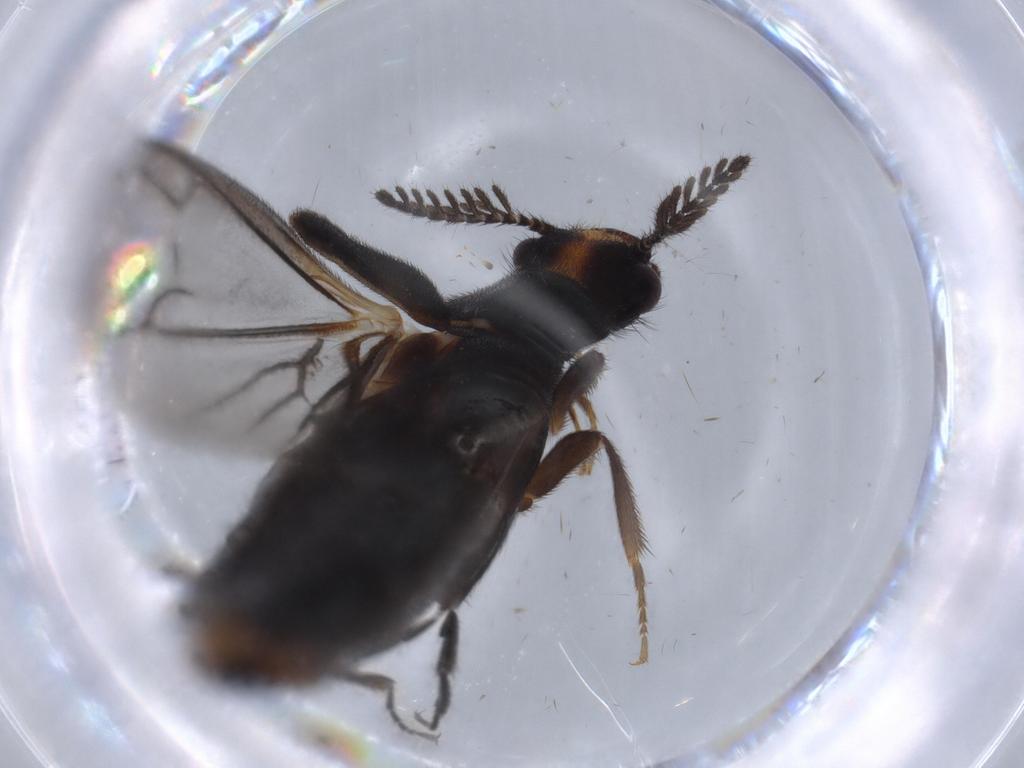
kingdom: Animalia
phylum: Arthropoda
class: Insecta
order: Coleoptera
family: Phengodidae
